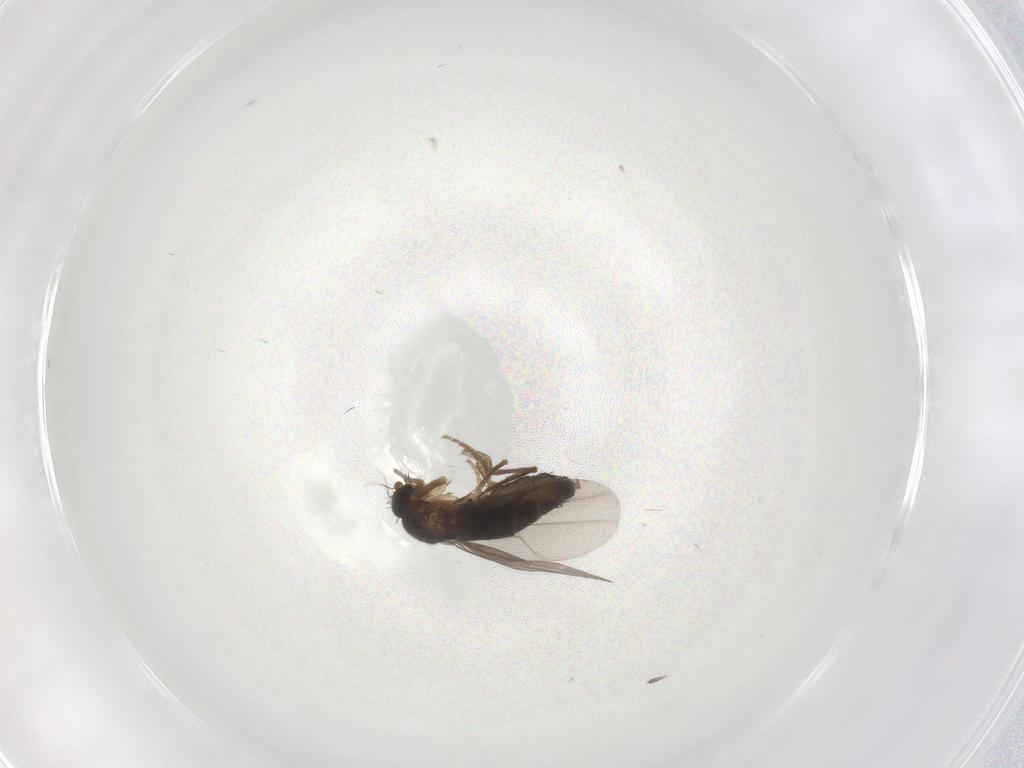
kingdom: Animalia
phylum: Arthropoda
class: Insecta
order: Diptera
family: Phoridae
